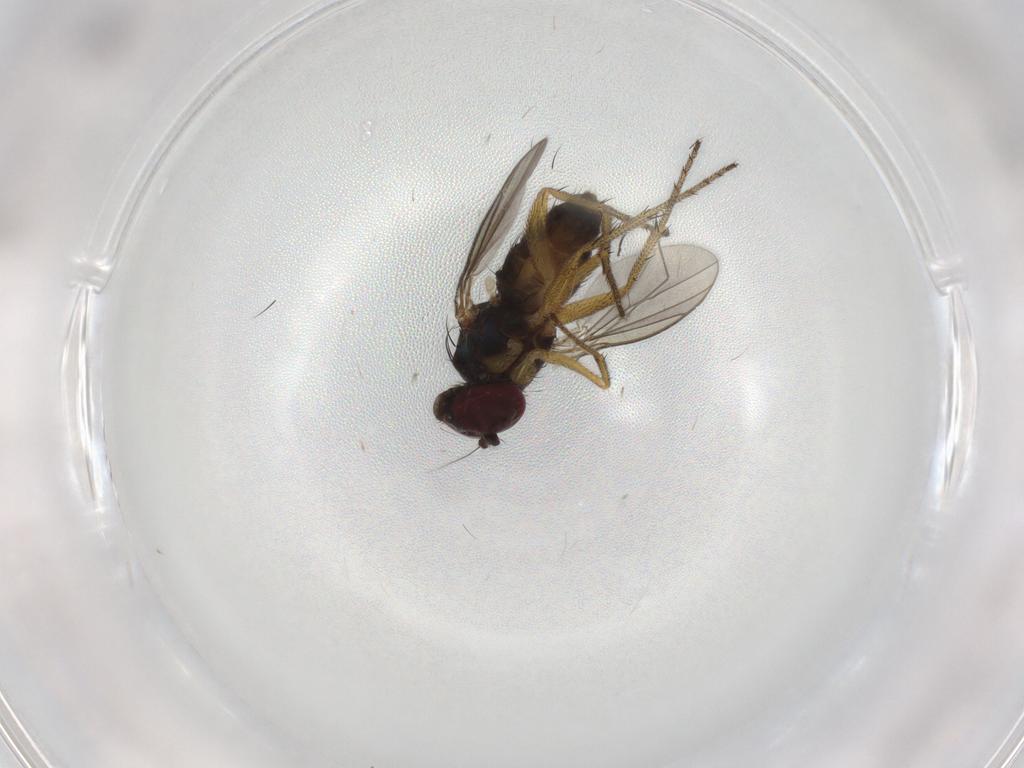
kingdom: Animalia
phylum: Arthropoda
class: Insecta
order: Diptera
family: Dolichopodidae
